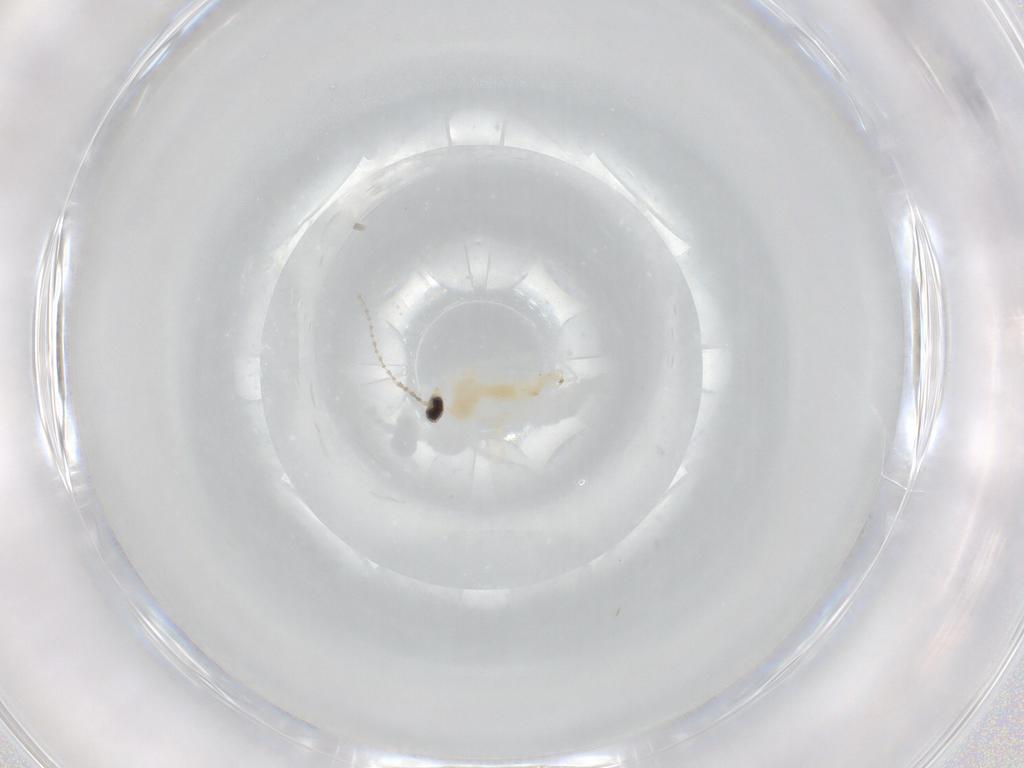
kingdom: Animalia
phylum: Arthropoda
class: Insecta
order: Diptera
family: Cecidomyiidae
